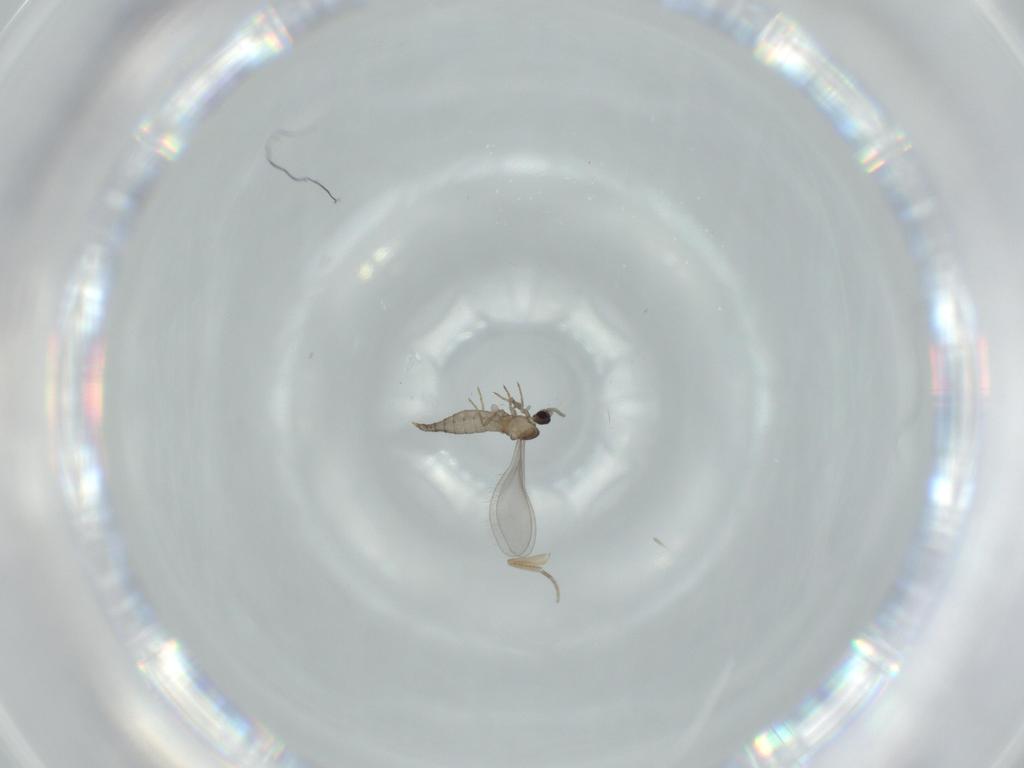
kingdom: Animalia
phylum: Arthropoda
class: Insecta
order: Diptera
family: Cecidomyiidae
